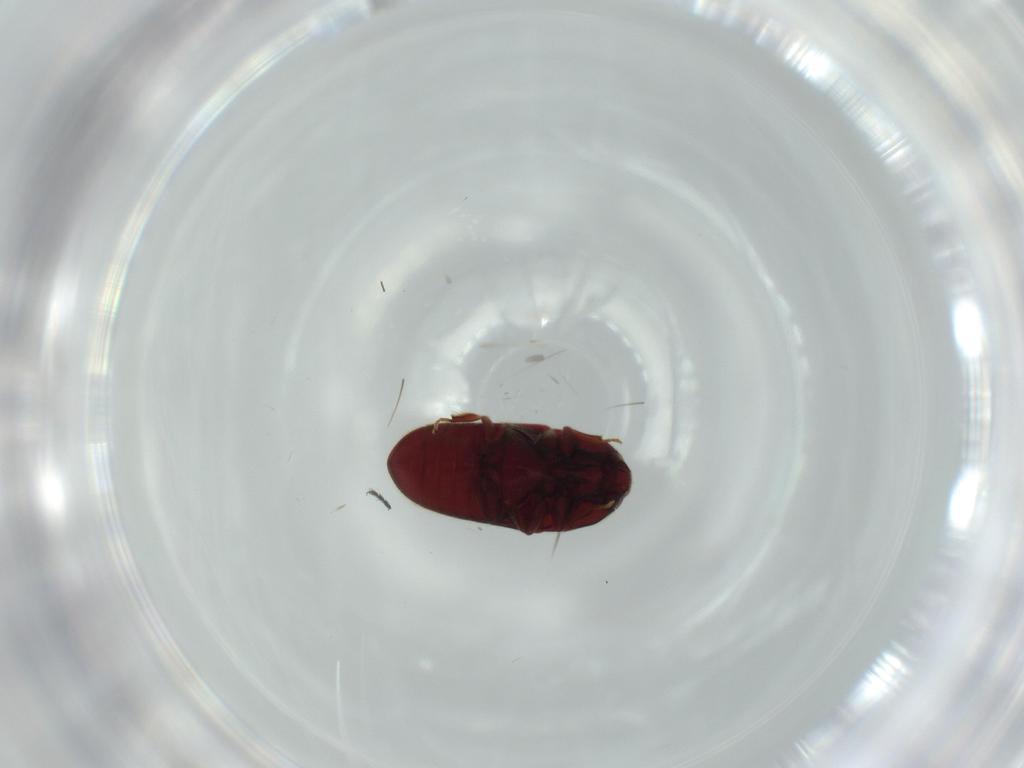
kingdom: Animalia
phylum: Arthropoda
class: Insecta
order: Coleoptera
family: Throscidae
